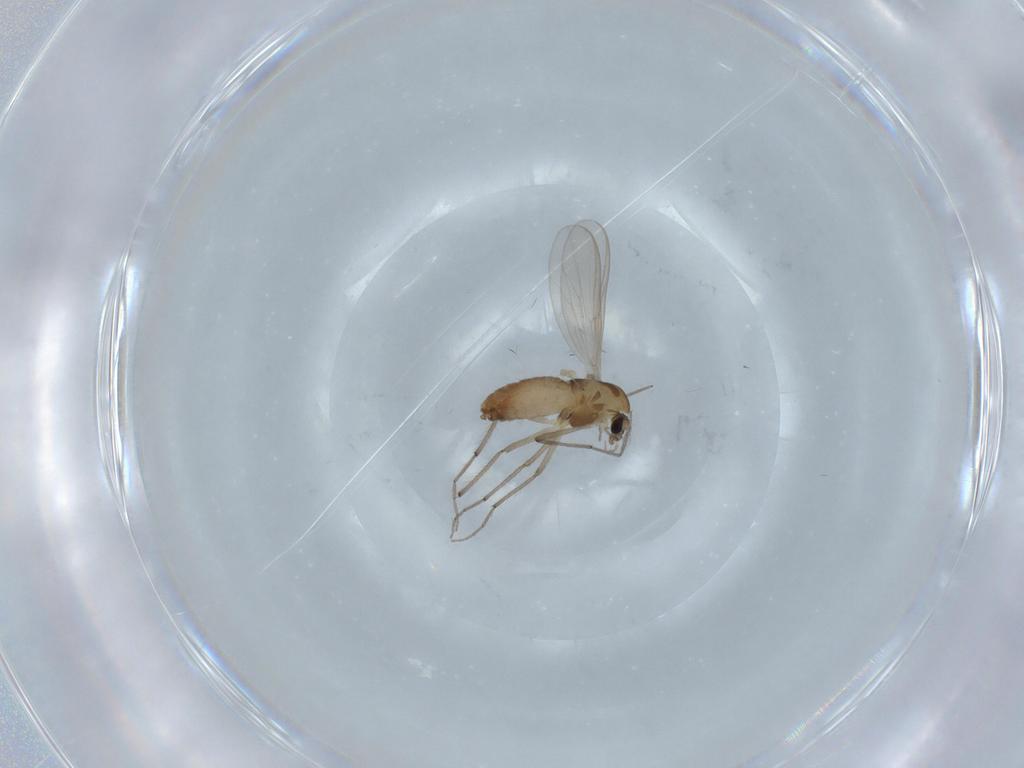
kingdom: Animalia
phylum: Arthropoda
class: Insecta
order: Diptera
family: Chironomidae
